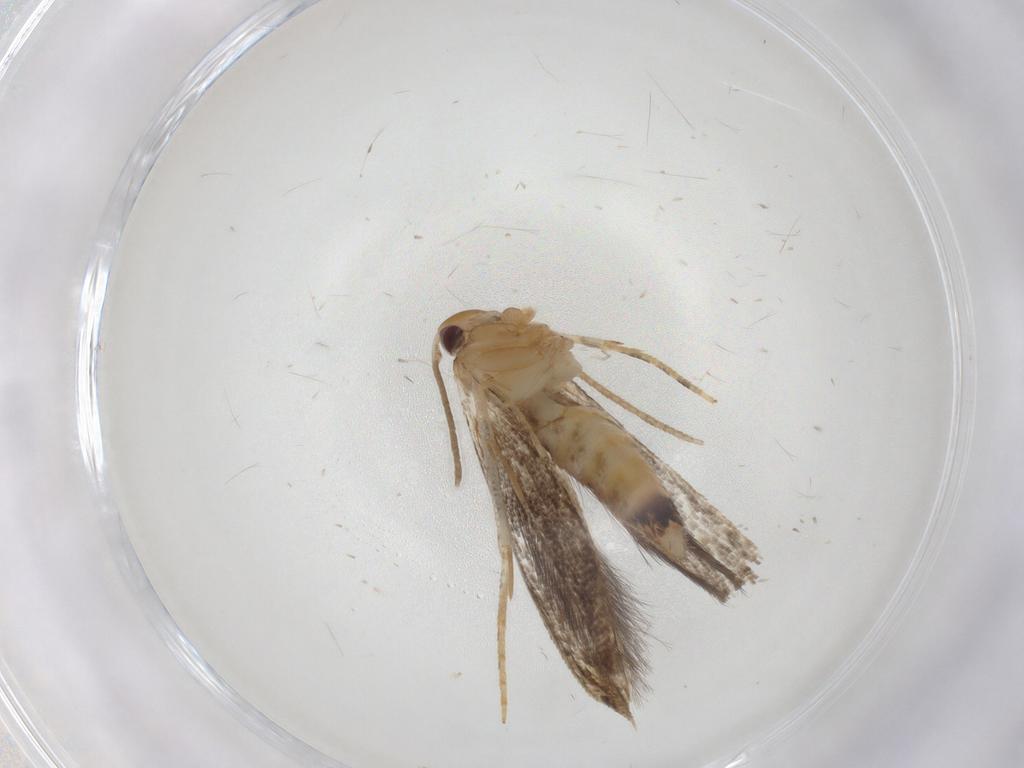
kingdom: Animalia
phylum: Arthropoda
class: Insecta
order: Lepidoptera
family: Momphidae
